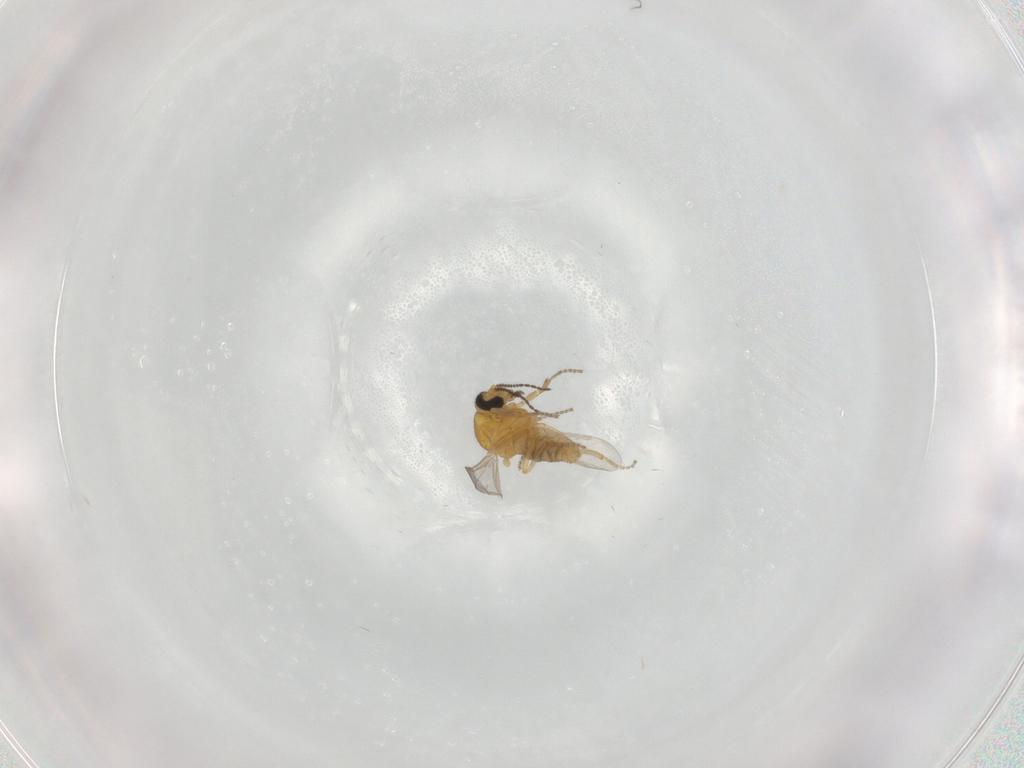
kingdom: Animalia
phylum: Arthropoda
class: Insecta
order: Diptera
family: Ceratopogonidae
